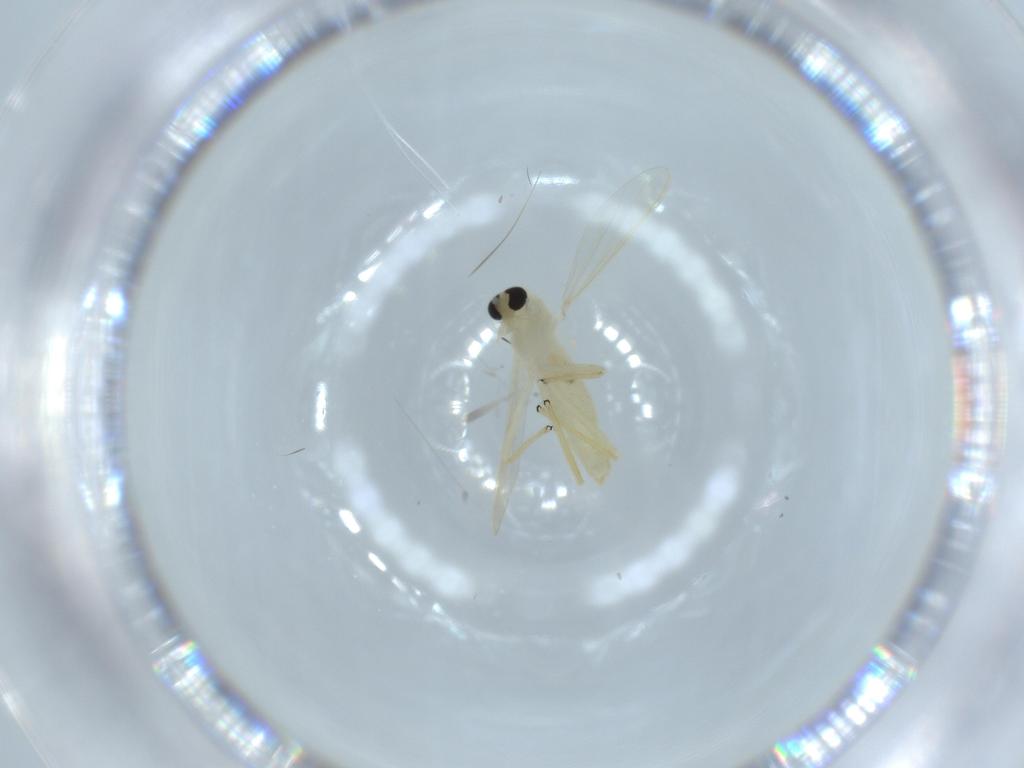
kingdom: Animalia
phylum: Arthropoda
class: Insecta
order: Diptera
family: Chironomidae
